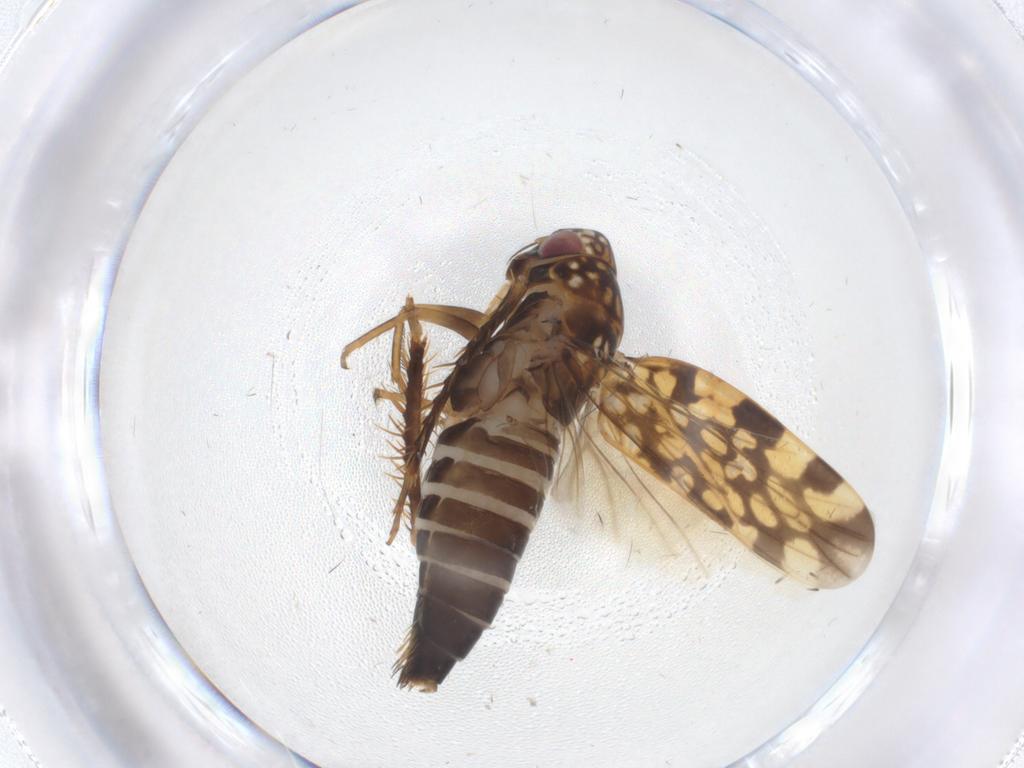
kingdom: Animalia
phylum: Arthropoda
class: Insecta
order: Hemiptera
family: Cicadellidae
